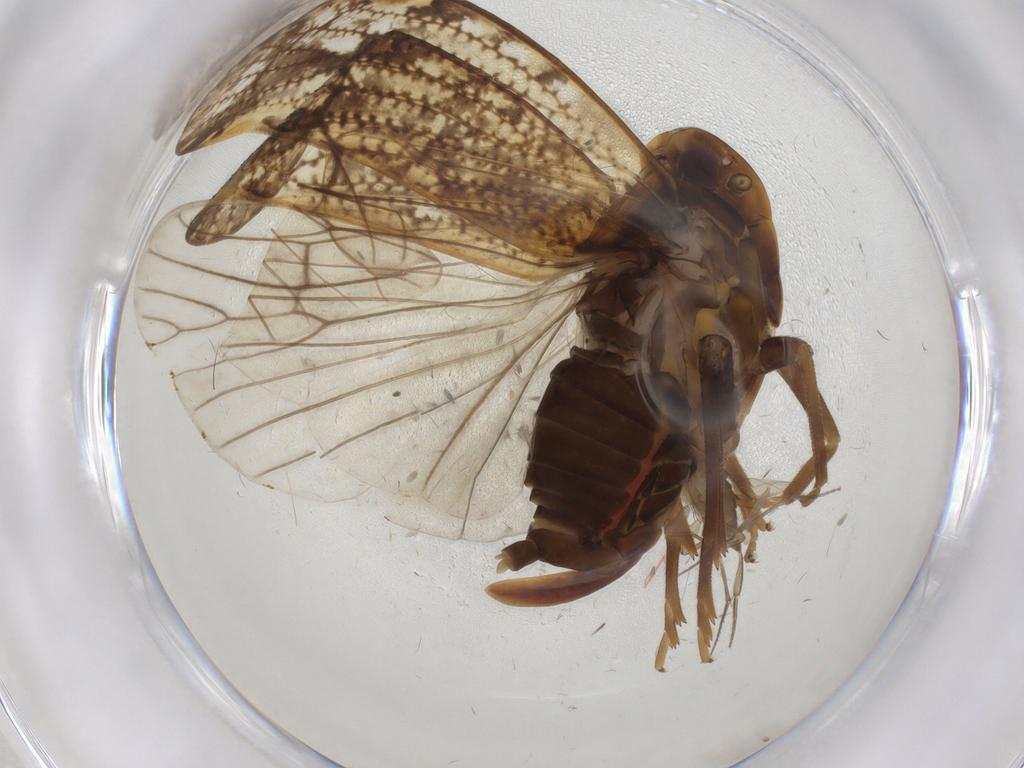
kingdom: Animalia
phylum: Arthropoda
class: Insecta
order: Hemiptera
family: Cixiidae
